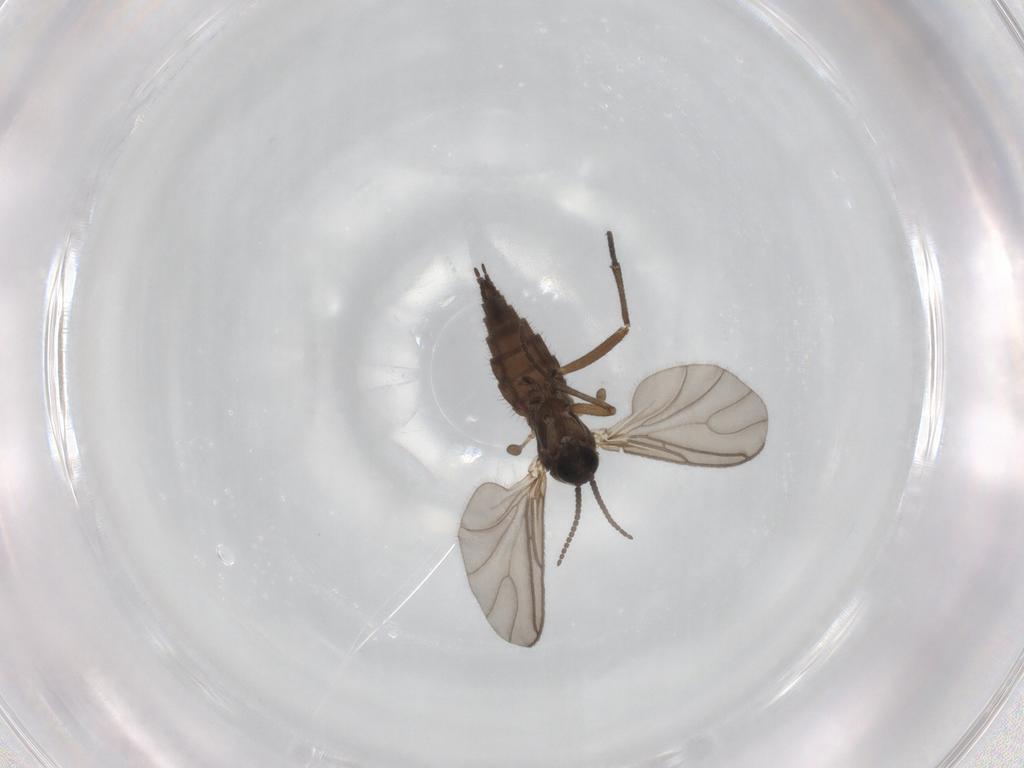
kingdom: Animalia
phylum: Arthropoda
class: Insecta
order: Diptera
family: Sciaridae
